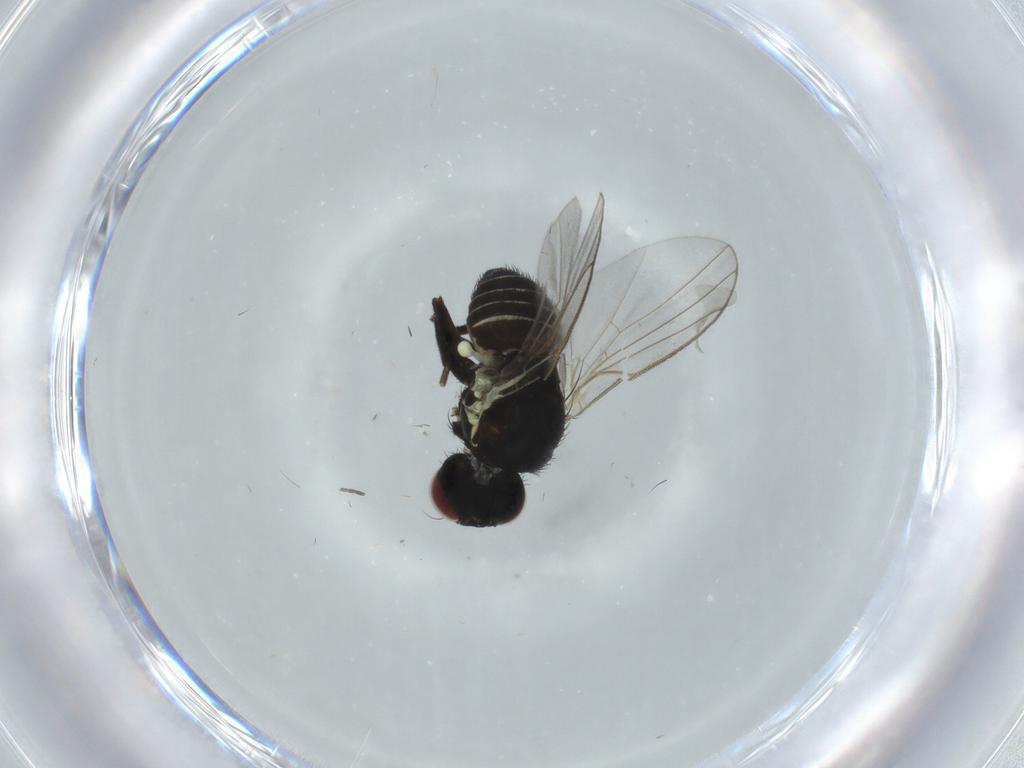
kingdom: Animalia
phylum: Arthropoda
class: Insecta
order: Diptera
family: Agromyzidae
